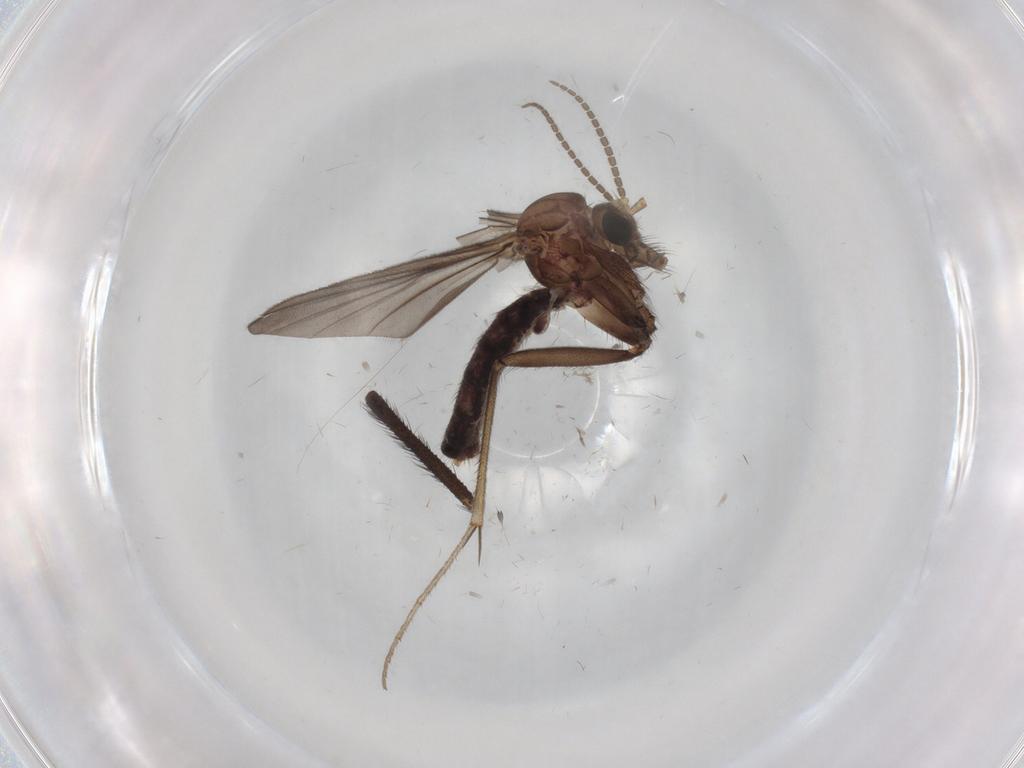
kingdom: Animalia
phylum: Arthropoda
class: Insecta
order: Diptera
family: Limoniidae
